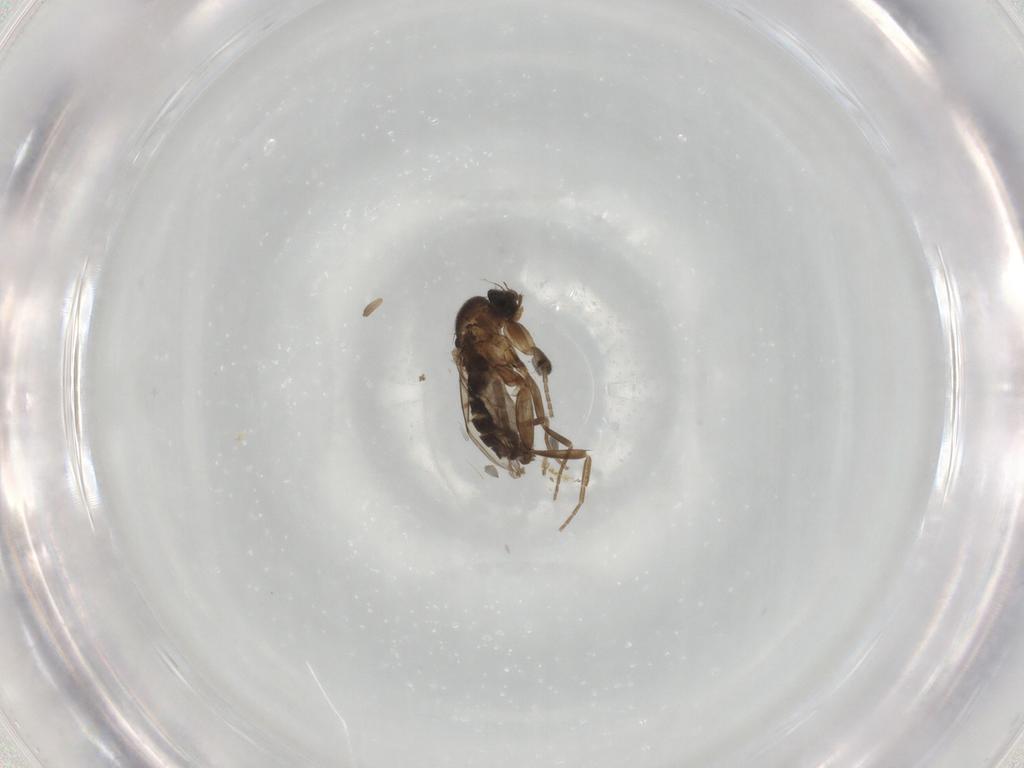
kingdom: Animalia
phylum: Arthropoda
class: Insecta
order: Diptera
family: Phoridae
